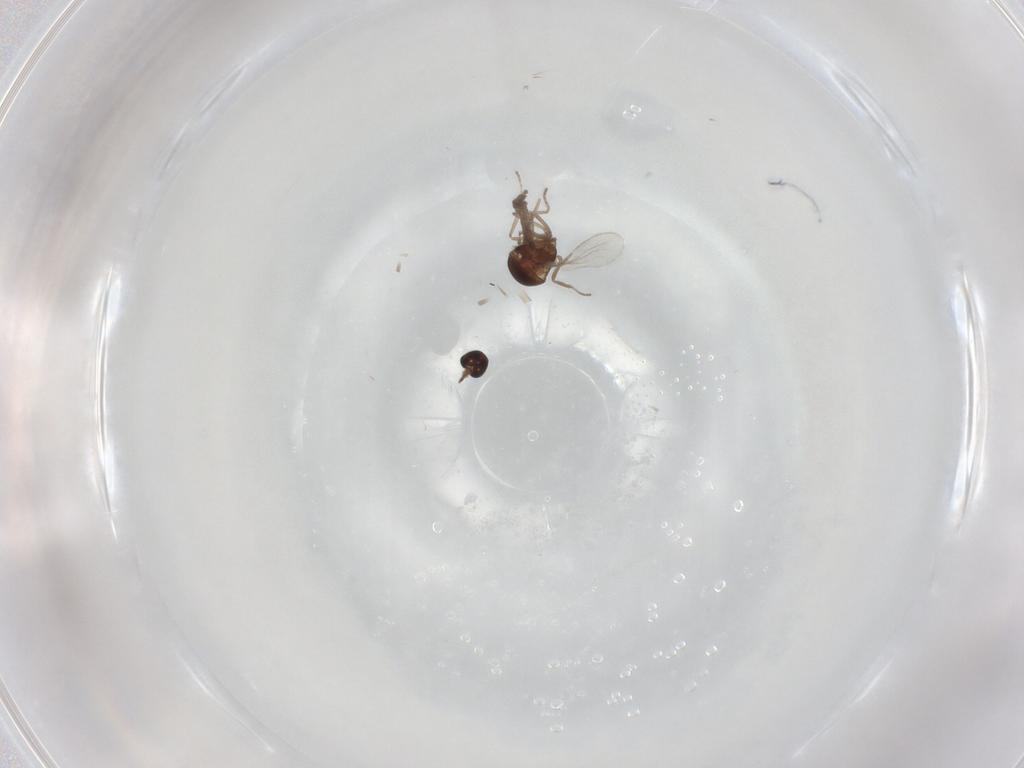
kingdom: Animalia
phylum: Arthropoda
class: Insecta
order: Diptera
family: Ceratopogonidae
